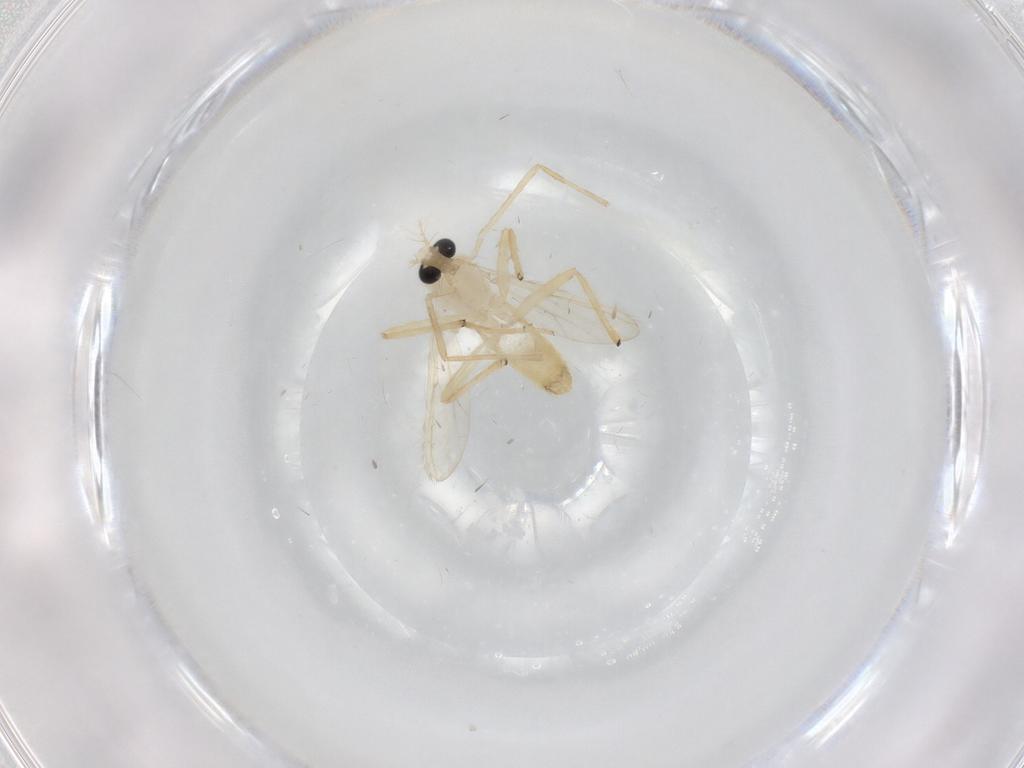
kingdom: Animalia
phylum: Arthropoda
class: Insecta
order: Diptera
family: Chironomidae
